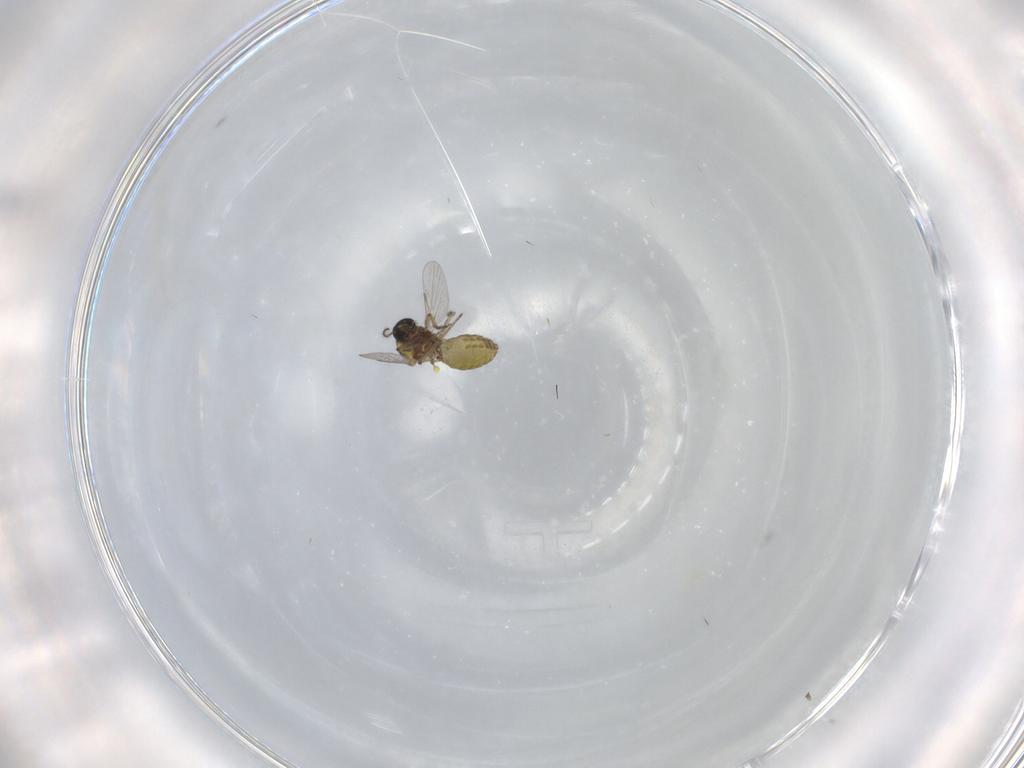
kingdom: Animalia
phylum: Arthropoda
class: Insecta
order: Diptera
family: Ceratopogonidae
